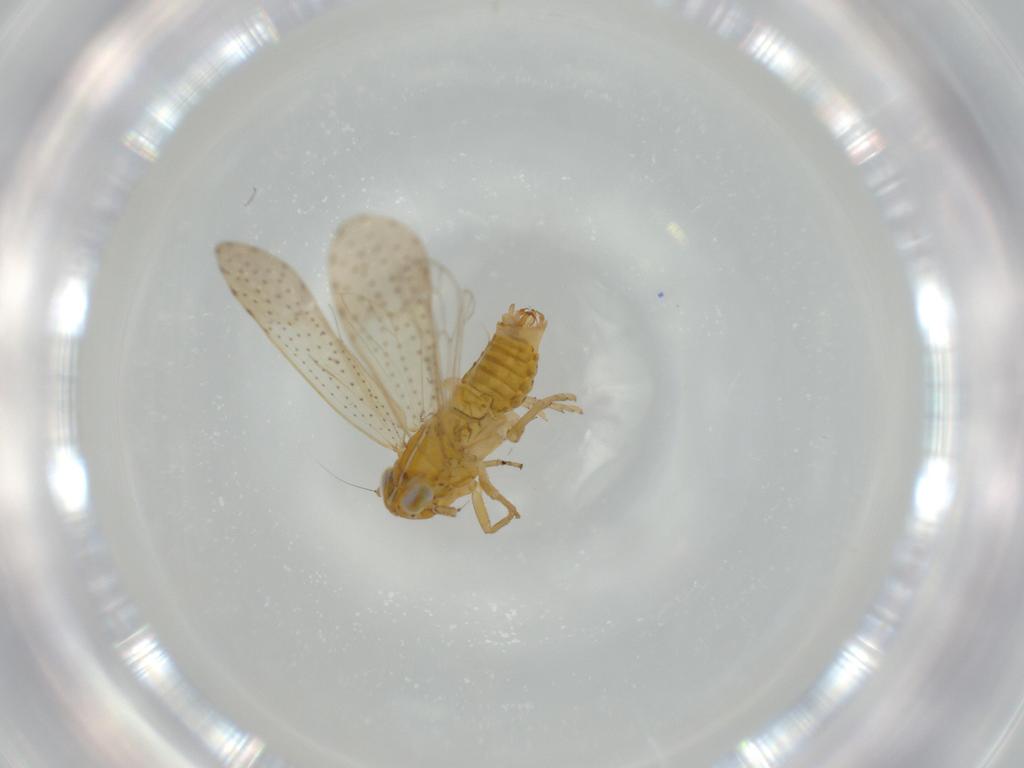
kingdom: Animalia
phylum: Arthropoda
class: Insecta
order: Hemiptera
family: Delphacidae
